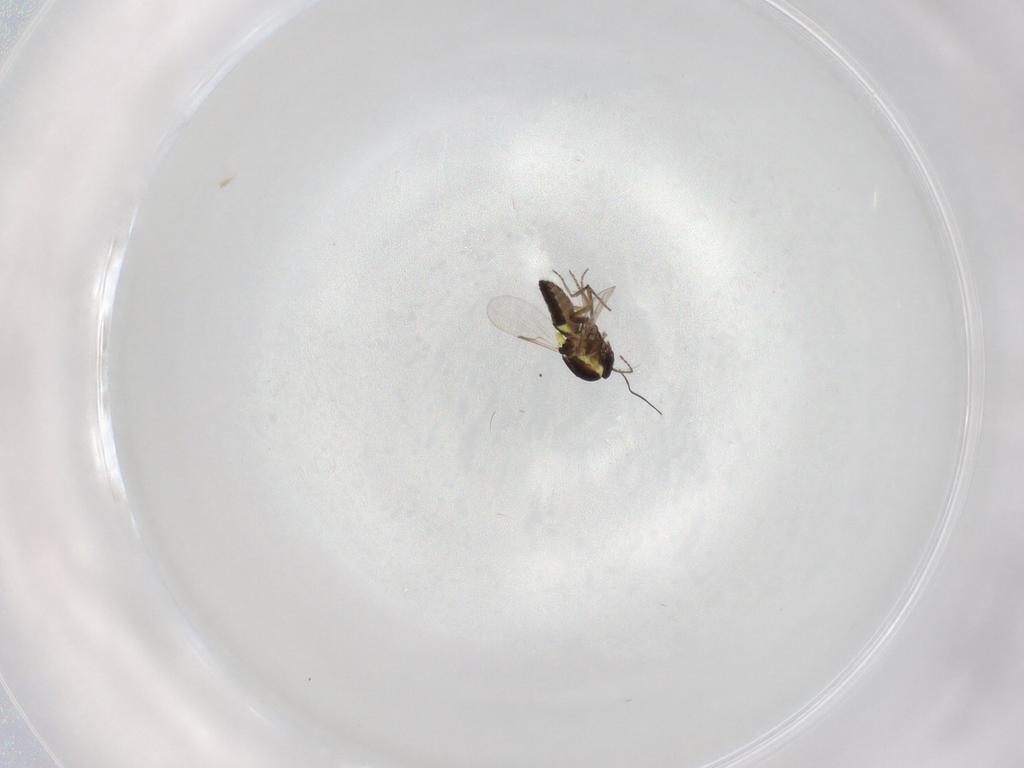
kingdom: Animalia
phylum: Arthropoda
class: Insecta
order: Diptera
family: Ceratopogonidae
